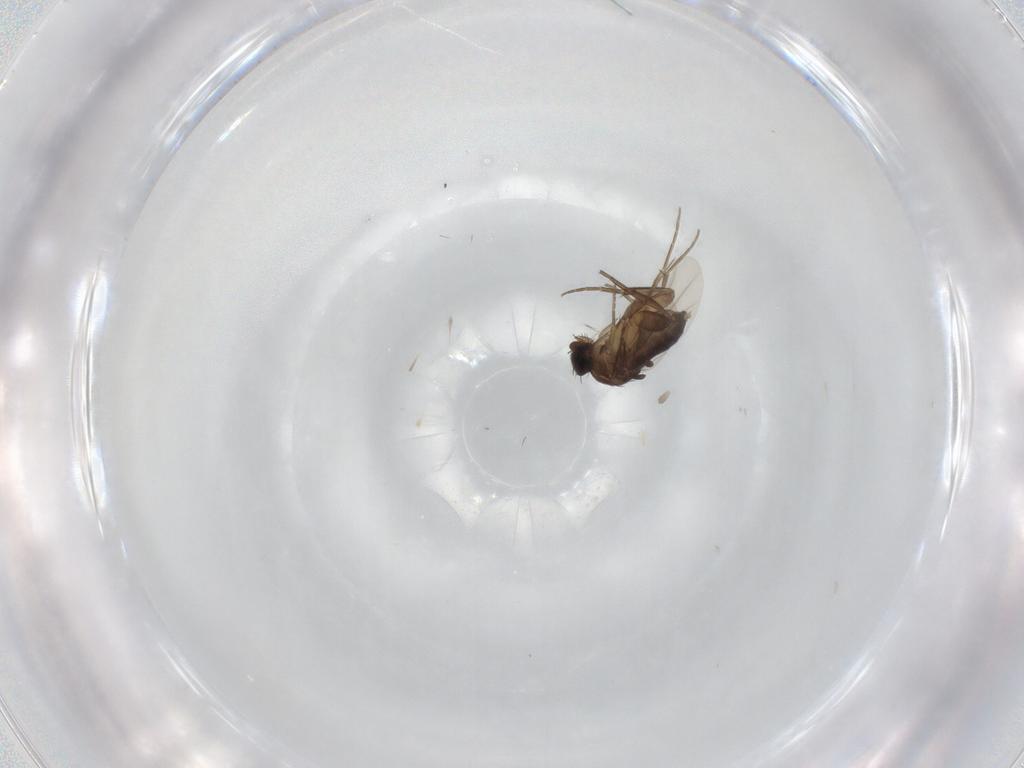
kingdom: Animalia
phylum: Arthropoda
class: Insecta
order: Diptera
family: Phoridae
